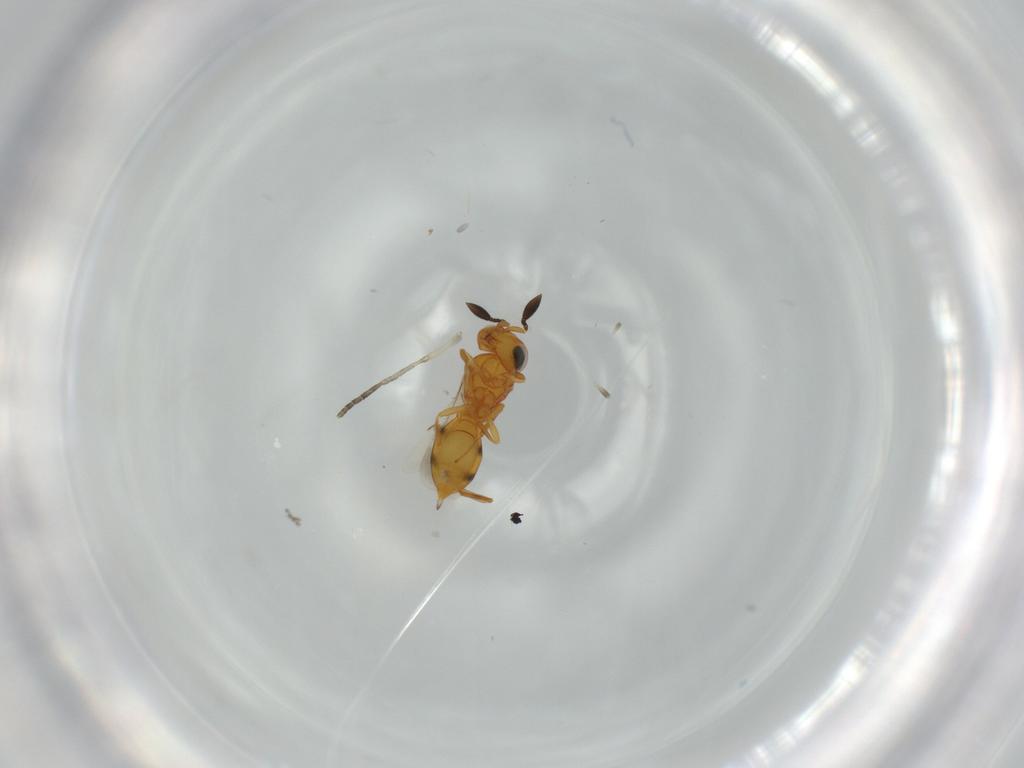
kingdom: Animalia
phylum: Arthropoda
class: Insecta
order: Hymenoptera
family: Scelionidae
